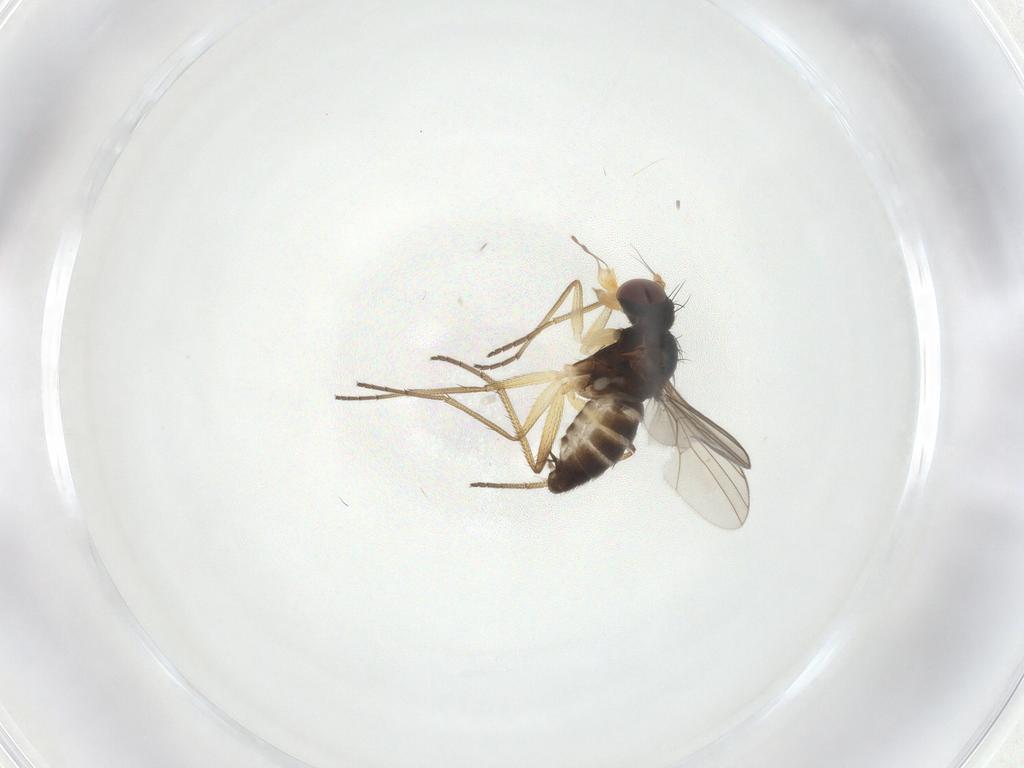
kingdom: Animalia
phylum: Arthropoda
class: Insecta
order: Diptera
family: Dolichopodidae
